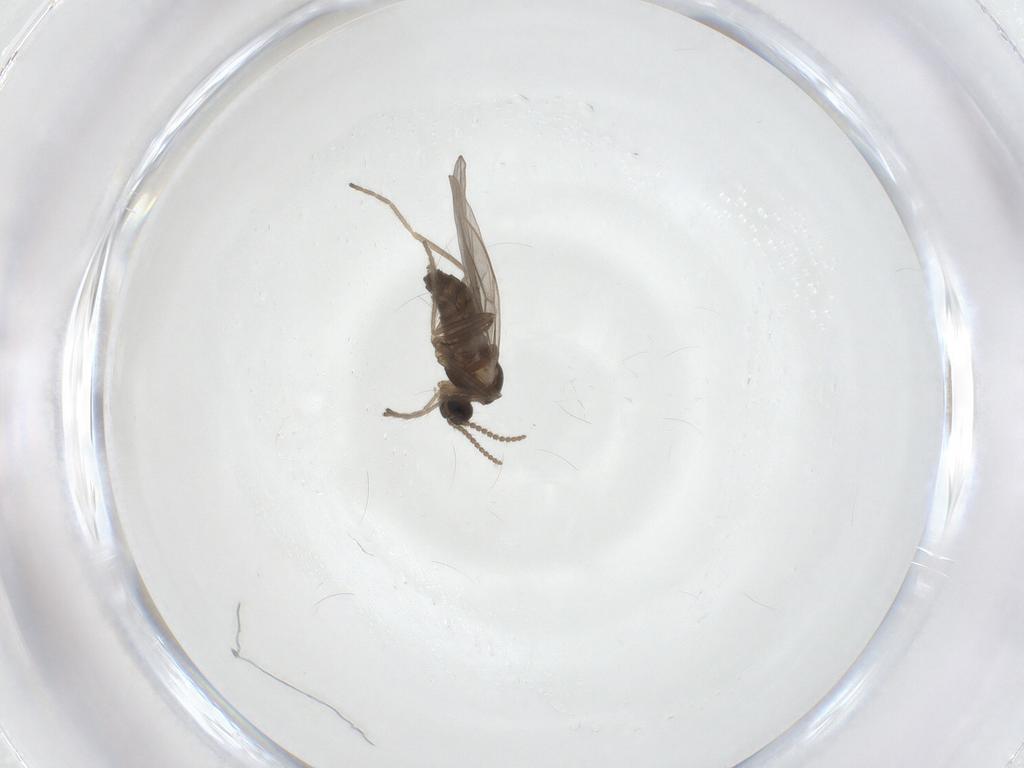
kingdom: Animalia
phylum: Arthropoda
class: Insecta
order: Diptera
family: Cecidomyiidae
